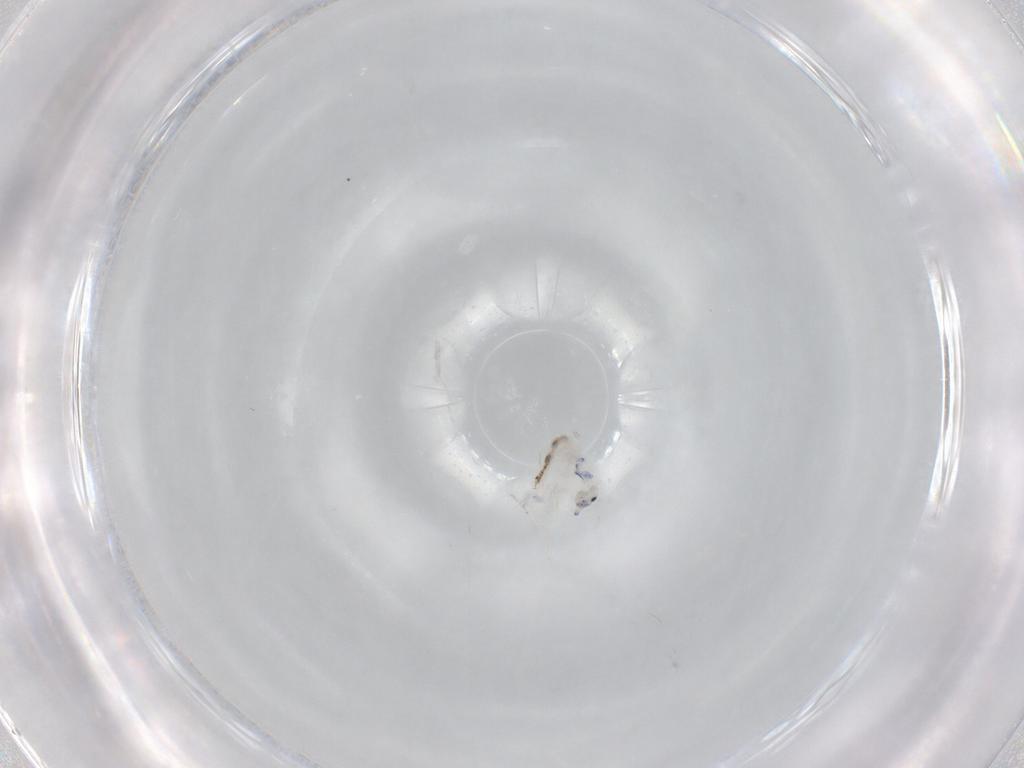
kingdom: Animalia
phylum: Arthropoda
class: Collembola
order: Entomobryomorpha
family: Entomobryidae
